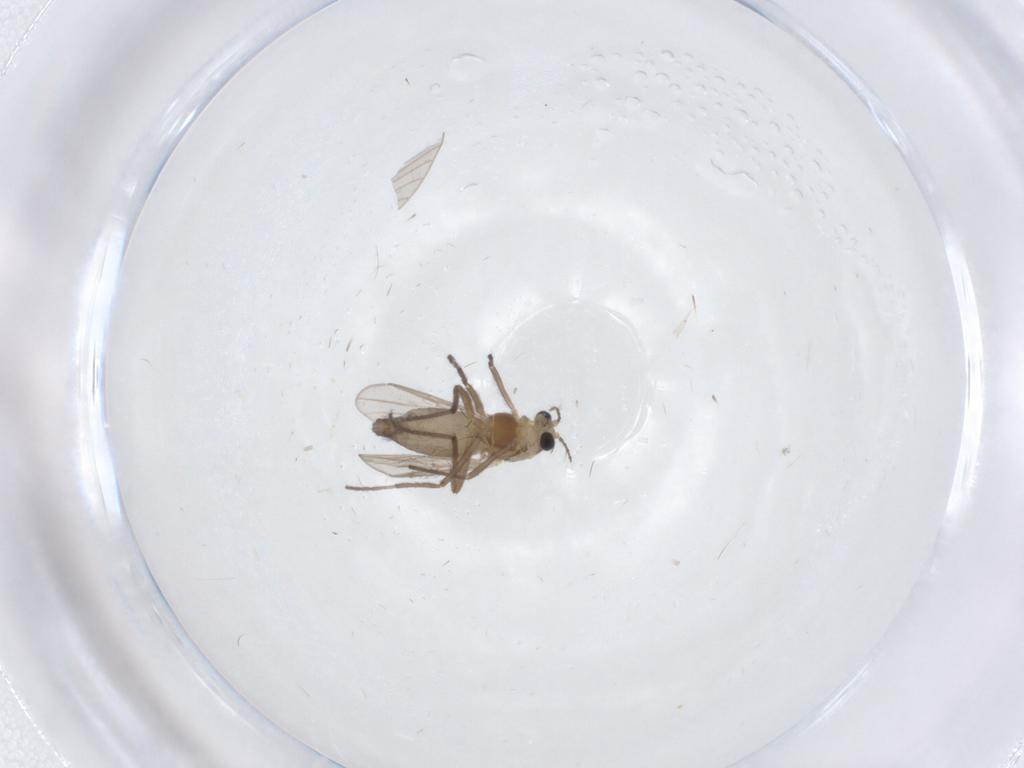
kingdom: Animalia
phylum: Arthropoda
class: Insecta
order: Diptera
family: Chironomidae
